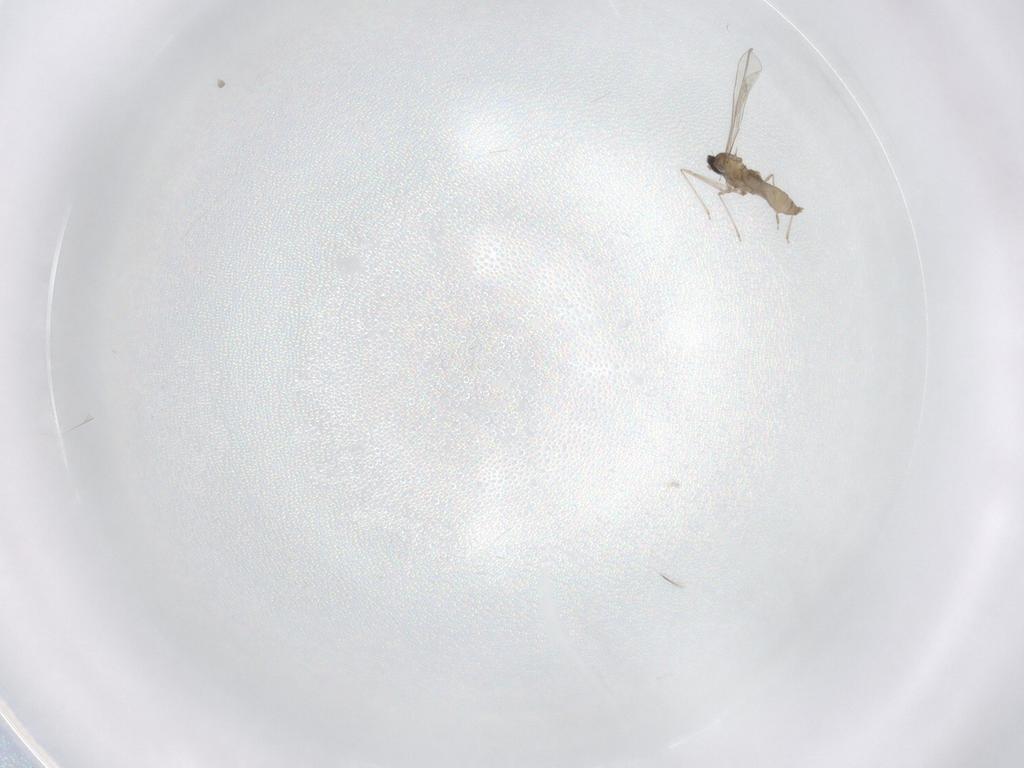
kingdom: Animalia
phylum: Arthropoda
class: Insecta
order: Diptera
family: Cecidomyiidae
